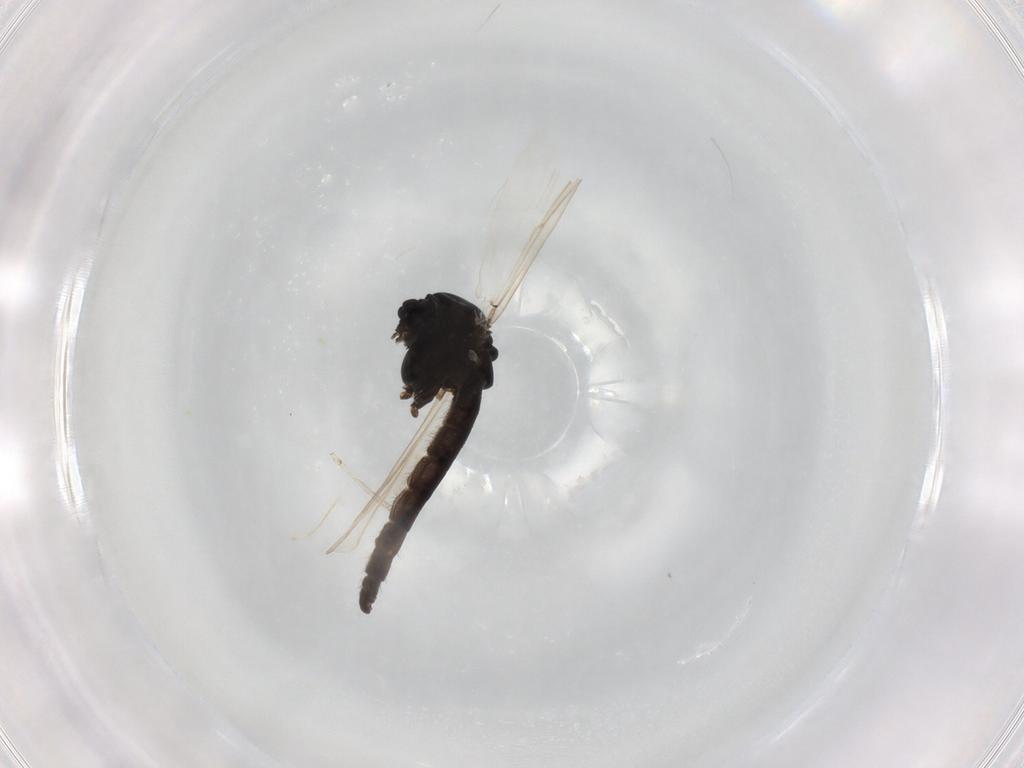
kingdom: Animalia
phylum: Arthropoda
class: Insecta
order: Diptera
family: Chironomidae
